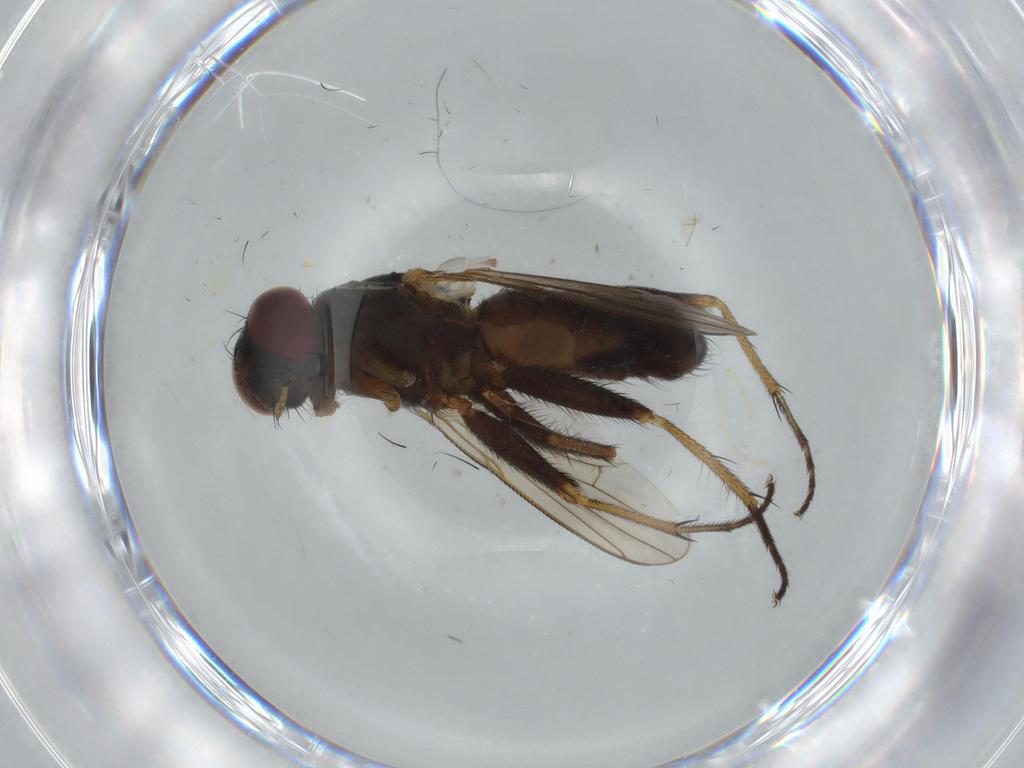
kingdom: Animalia
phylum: Arthropoda
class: Insecta
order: Diptera
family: Muscidae
